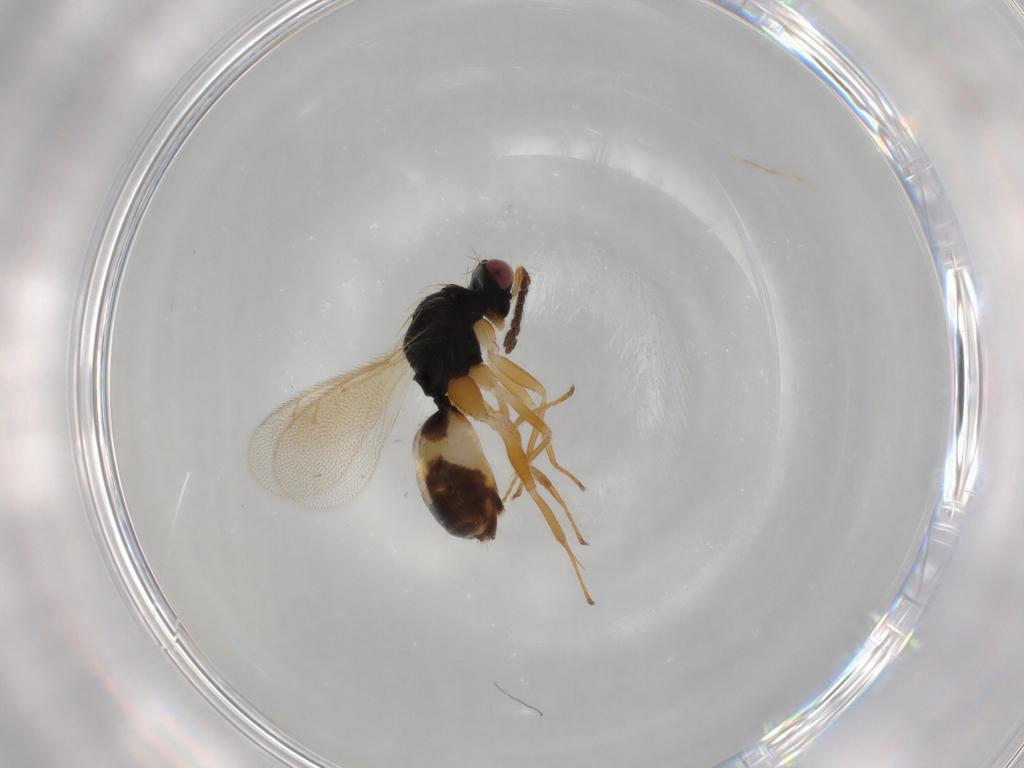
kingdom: Animalia
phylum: Arthropoda
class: Insecta
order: Hymenoptera
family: Eulophidae
